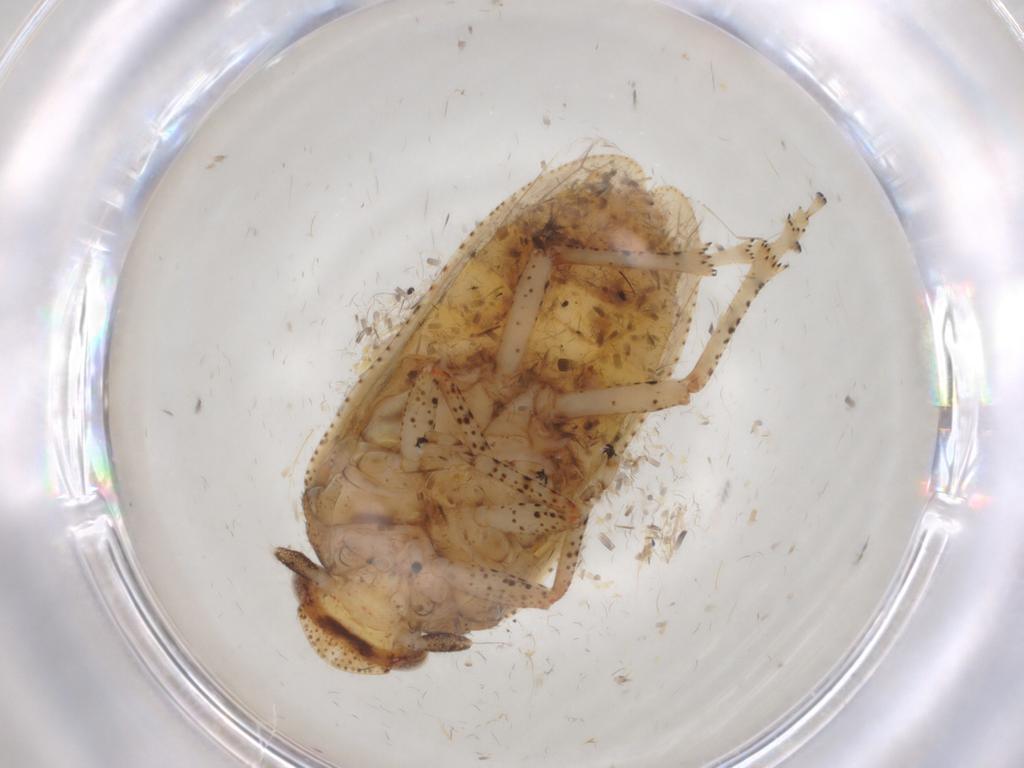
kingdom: Animalia
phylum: Arthropoda
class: Insecta
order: Hemiptera
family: Tettigometridae
